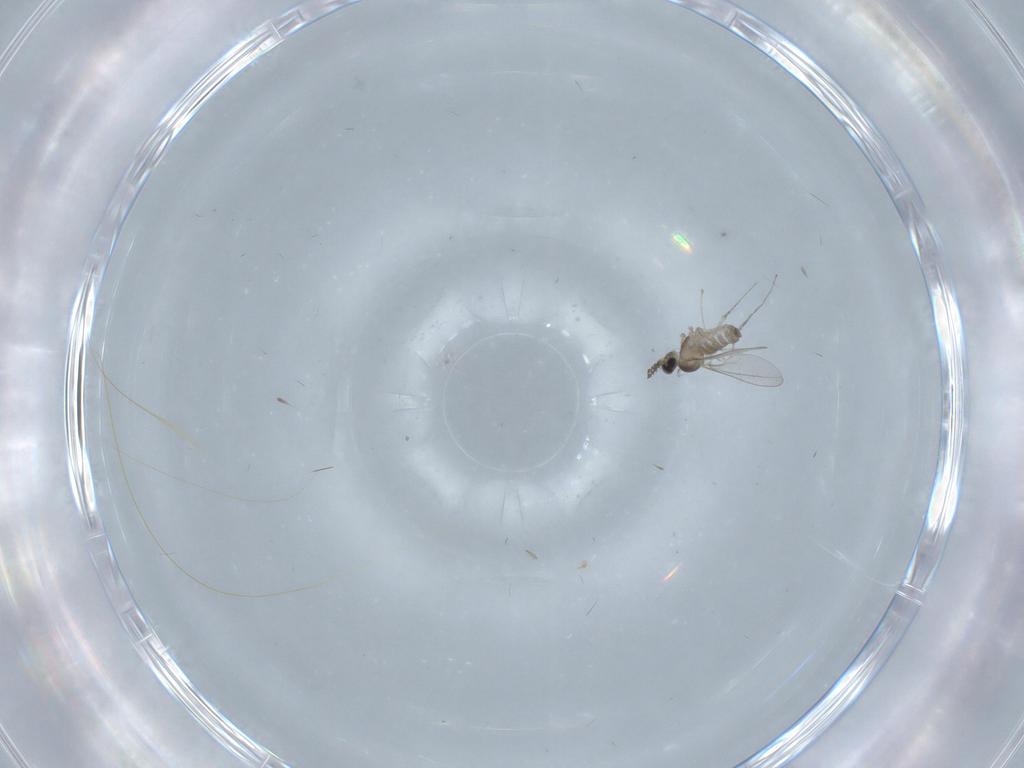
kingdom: Animalia
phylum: Arthropoda
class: Insecta
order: Diptera
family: Cecidomyiidae
